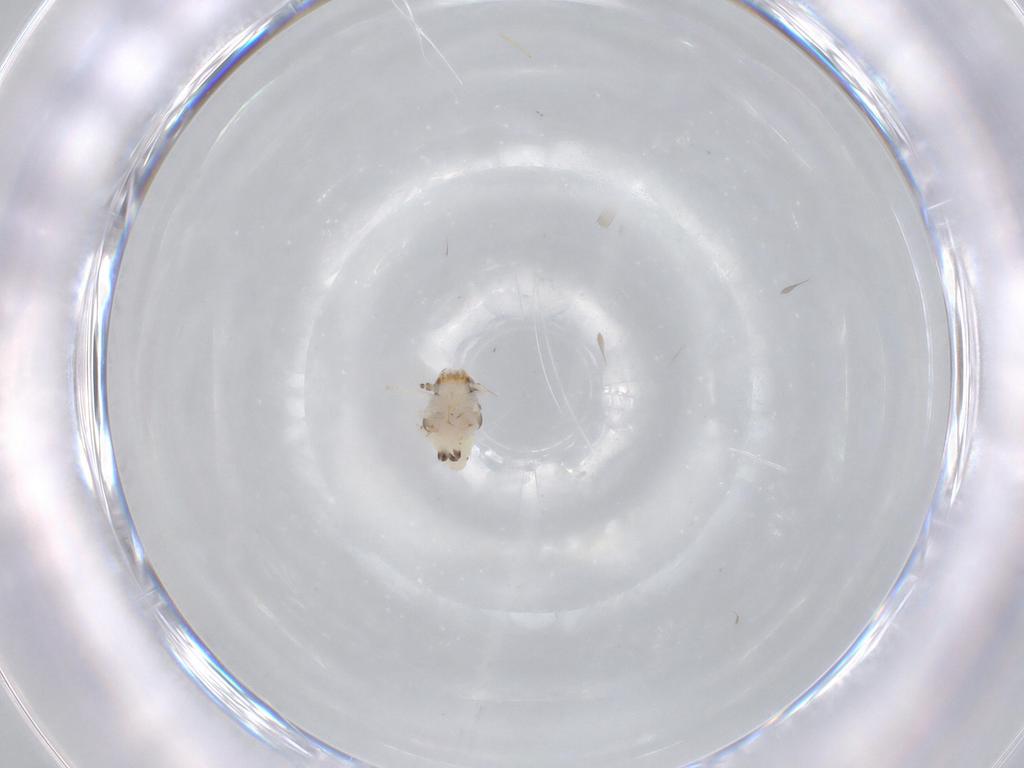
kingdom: Animalia
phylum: Arthropoda
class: Insecta
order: Hemiptera
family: Nogodinidae
